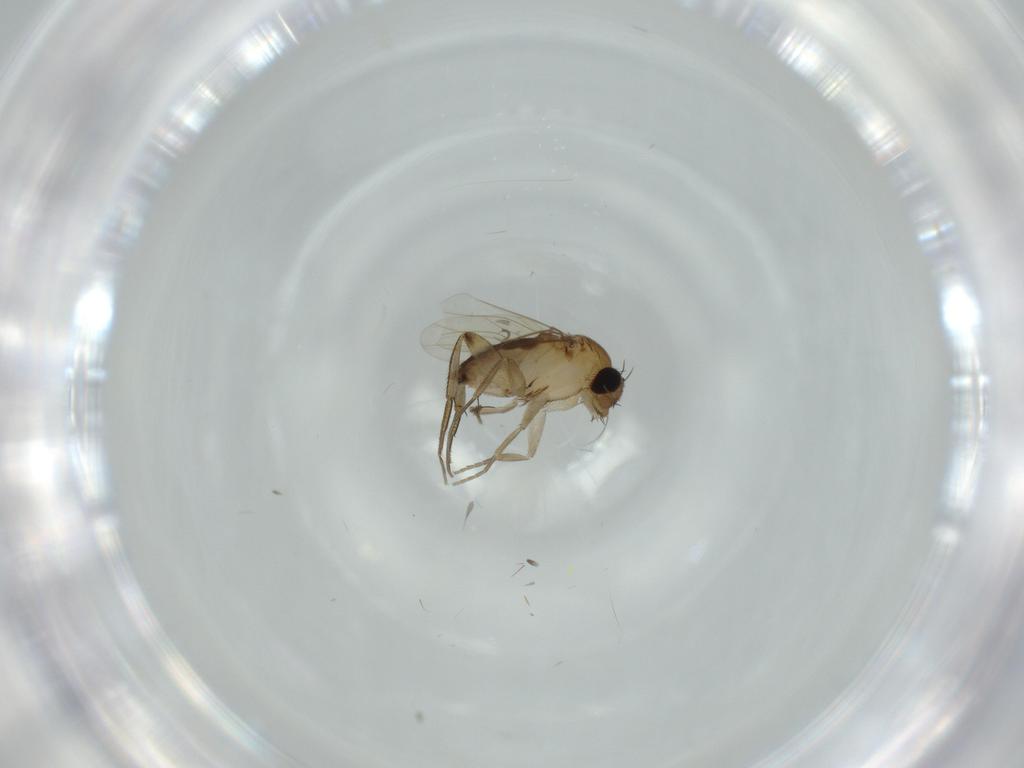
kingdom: Animalia
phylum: Arthropoda
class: Insecta
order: Diptera
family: Phoridae
